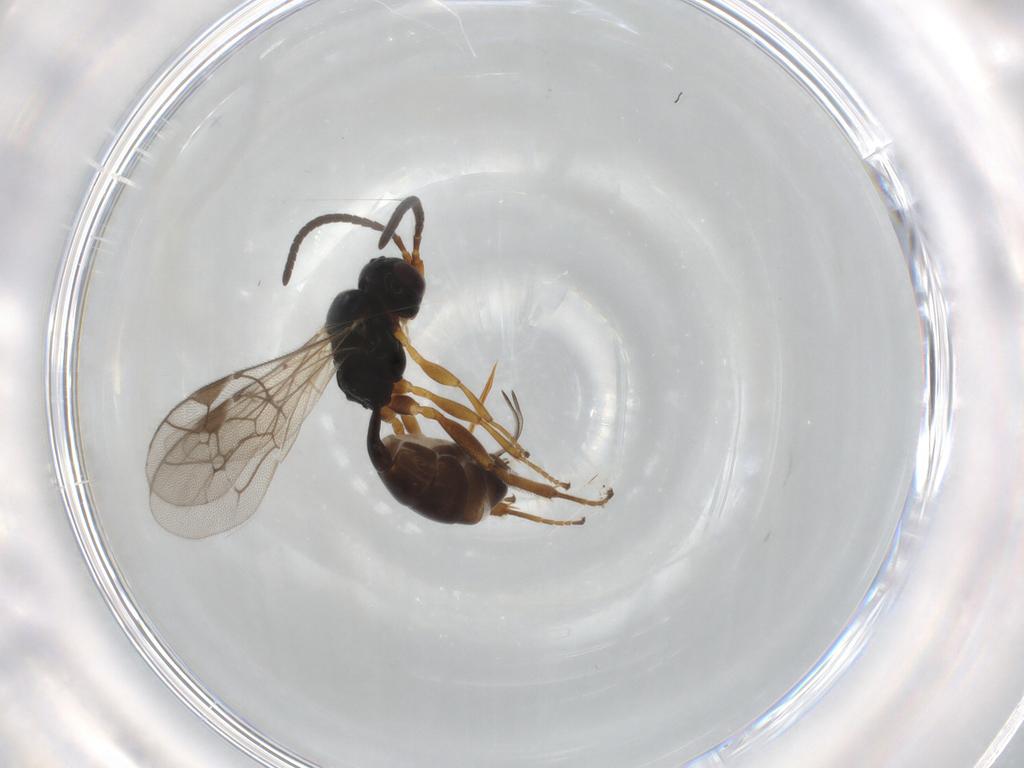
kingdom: Animalia
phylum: Arthropoda
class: Insecta
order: Hymenoptera
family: Ichneumonidae
